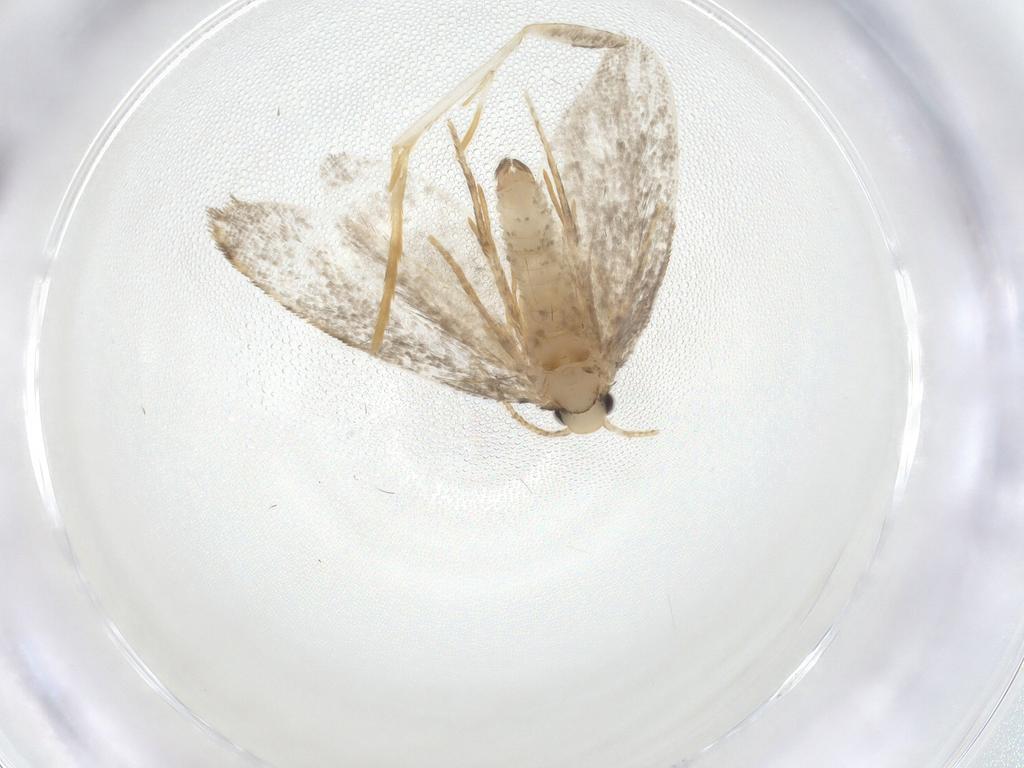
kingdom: Animalia
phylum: Arthropoda
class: Insecta
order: Lepidoptera
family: Psychidae
